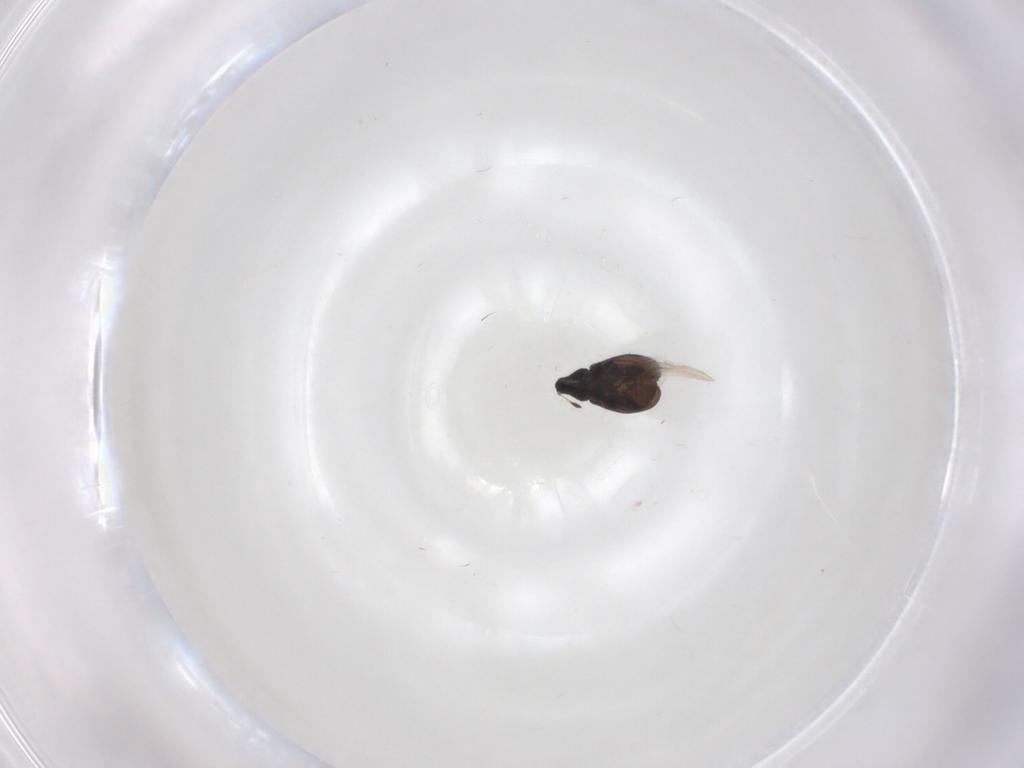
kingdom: Animalia
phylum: Arthropoda
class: Insecta
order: Coleoptera
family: Curculionidae
